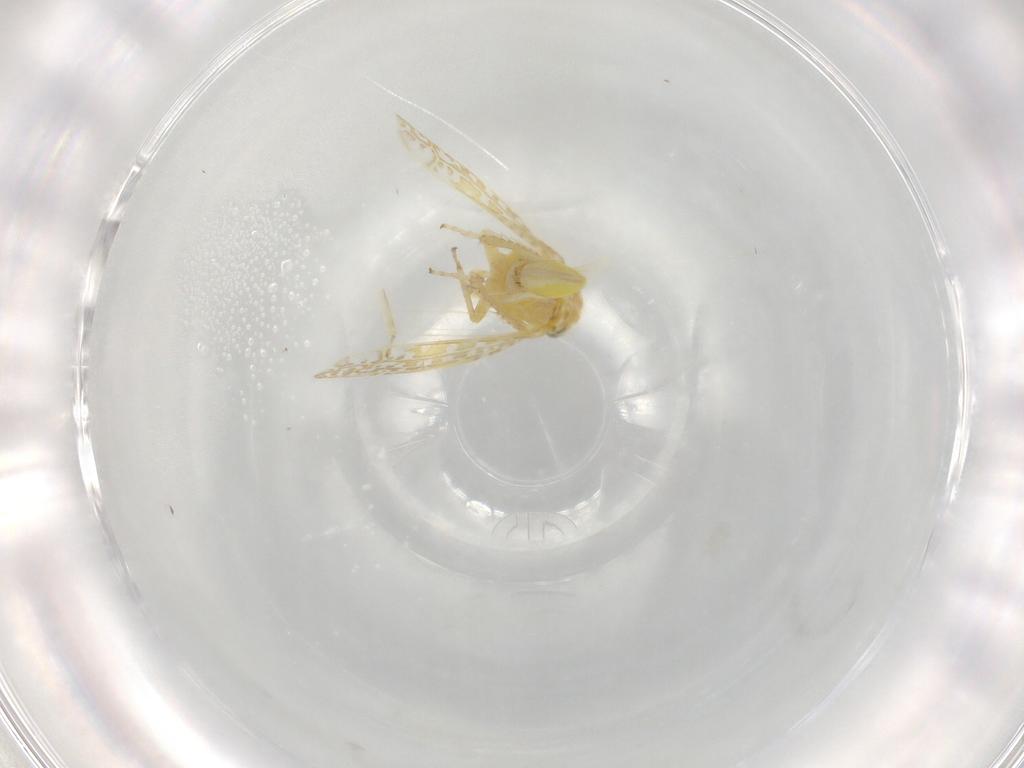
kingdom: Animalia
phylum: Arthropoda
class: Insecta
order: Hemiptera
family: Cicadellidae
